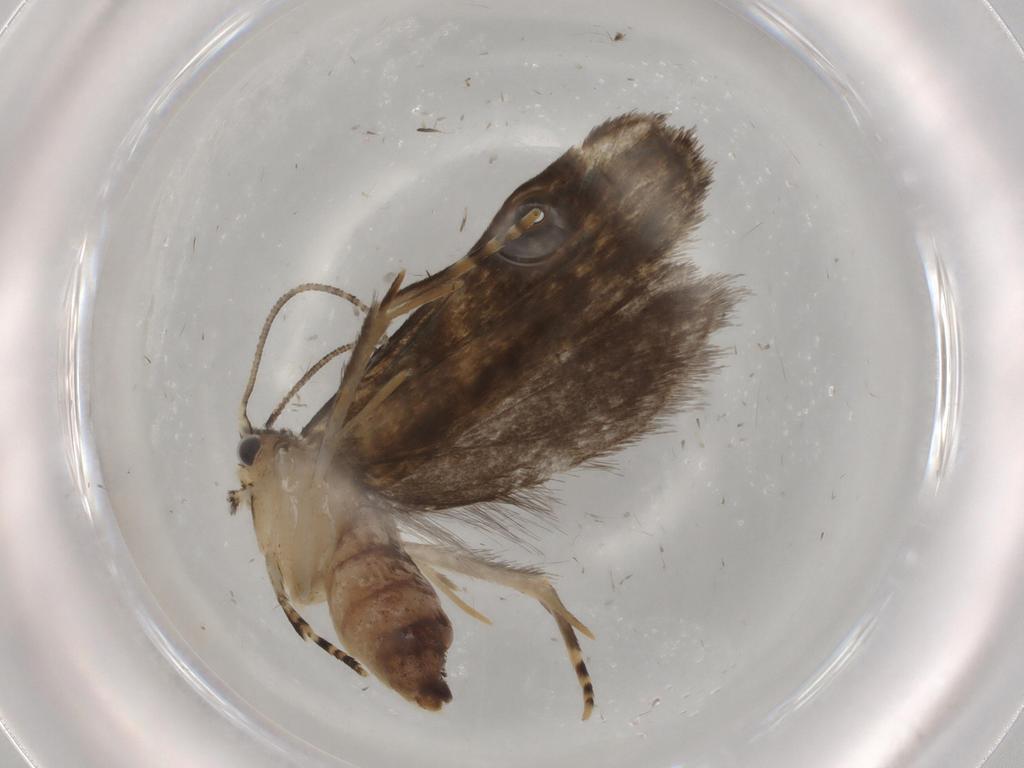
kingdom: Animalia
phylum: Arthropoda
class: Insecta
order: Lepidoptera
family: Tineidae
